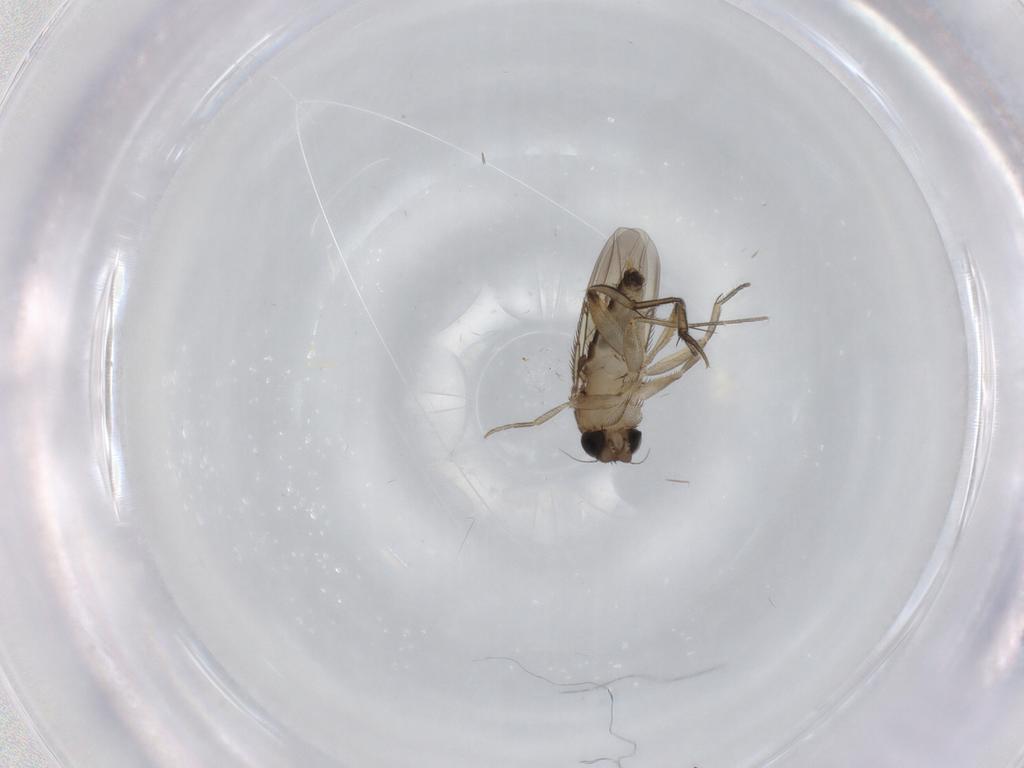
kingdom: Animalia
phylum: Arthropoda
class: Insecta
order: Diptera
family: Phoridae
